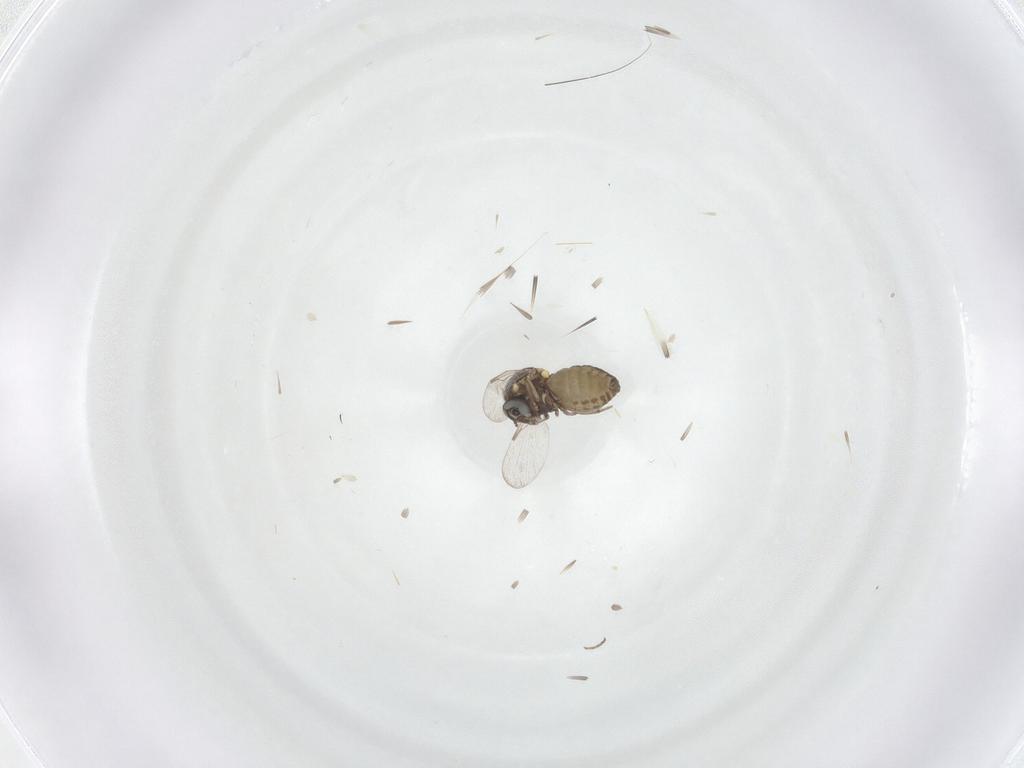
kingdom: Animalia
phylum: Arthropoda
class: Insecta
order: Diptera
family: Ceratopogonidae
